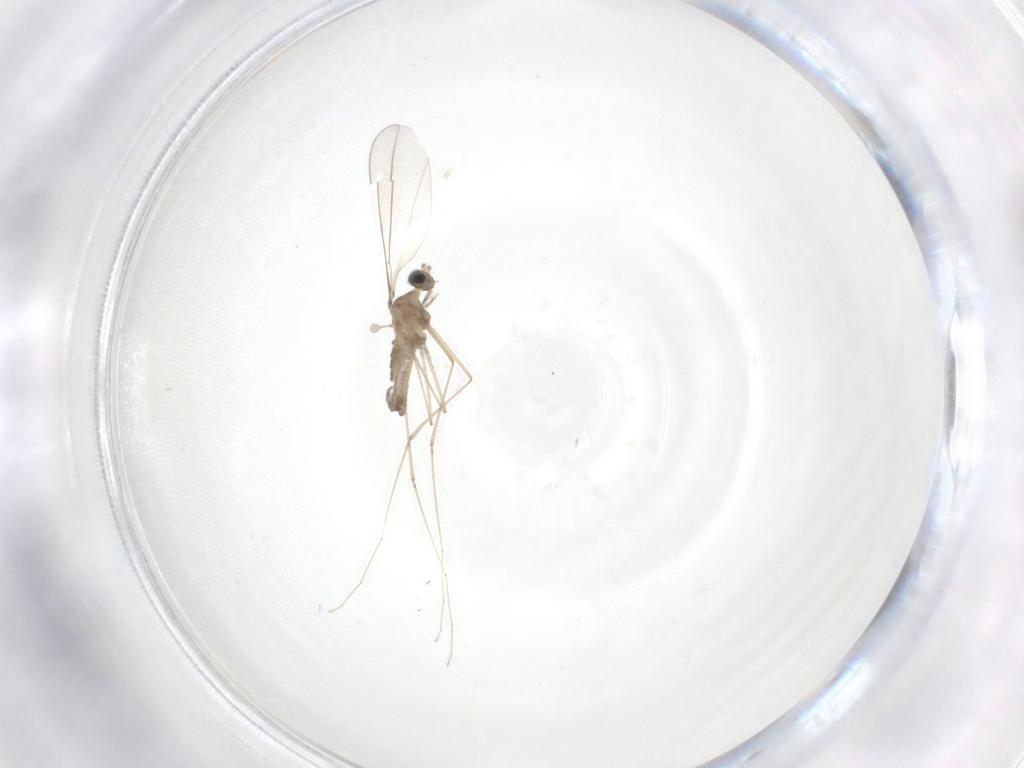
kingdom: Animalia
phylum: Arthropoda
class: Insecta
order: Diptera
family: Cecidomyiidae
